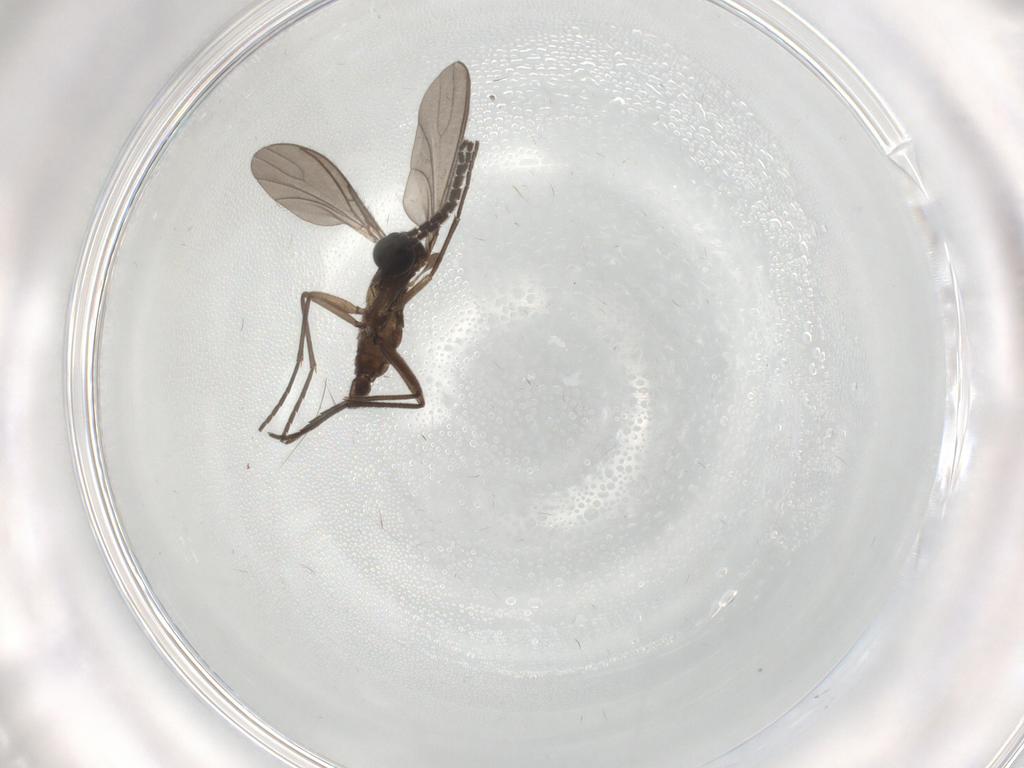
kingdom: Animalia
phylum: Arthropoda
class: Insecta
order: Diptera
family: Sciaridae
